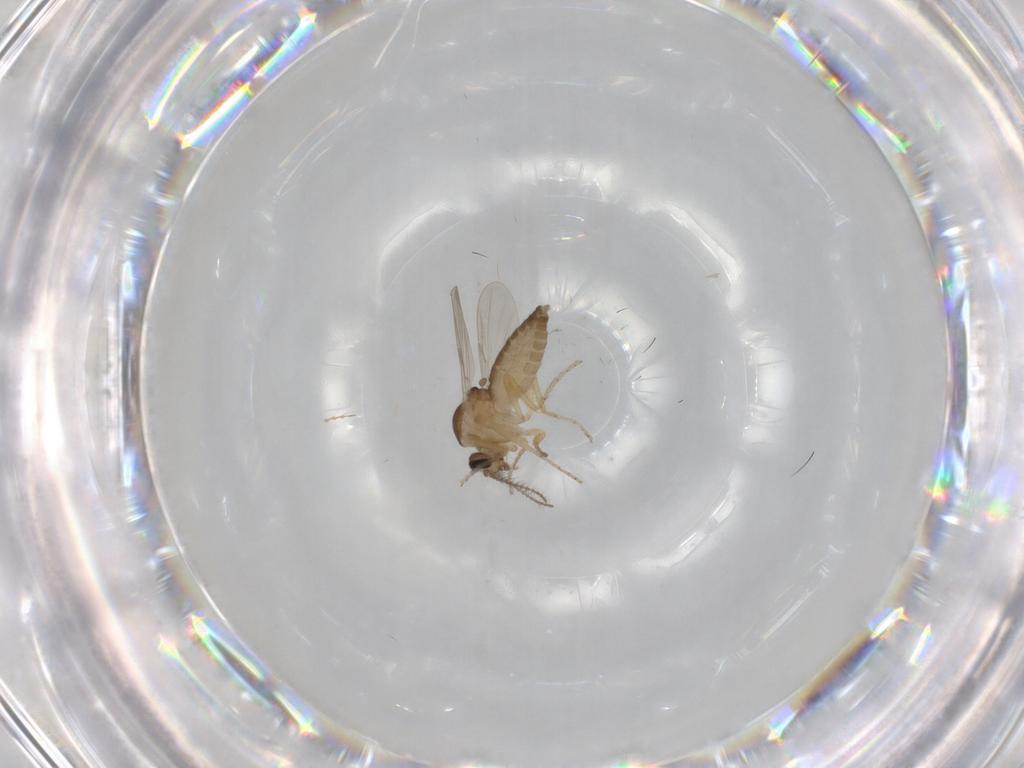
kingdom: Animalia
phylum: Arthropoda
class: Insecta
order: Diptera
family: Ceratopogonidae
